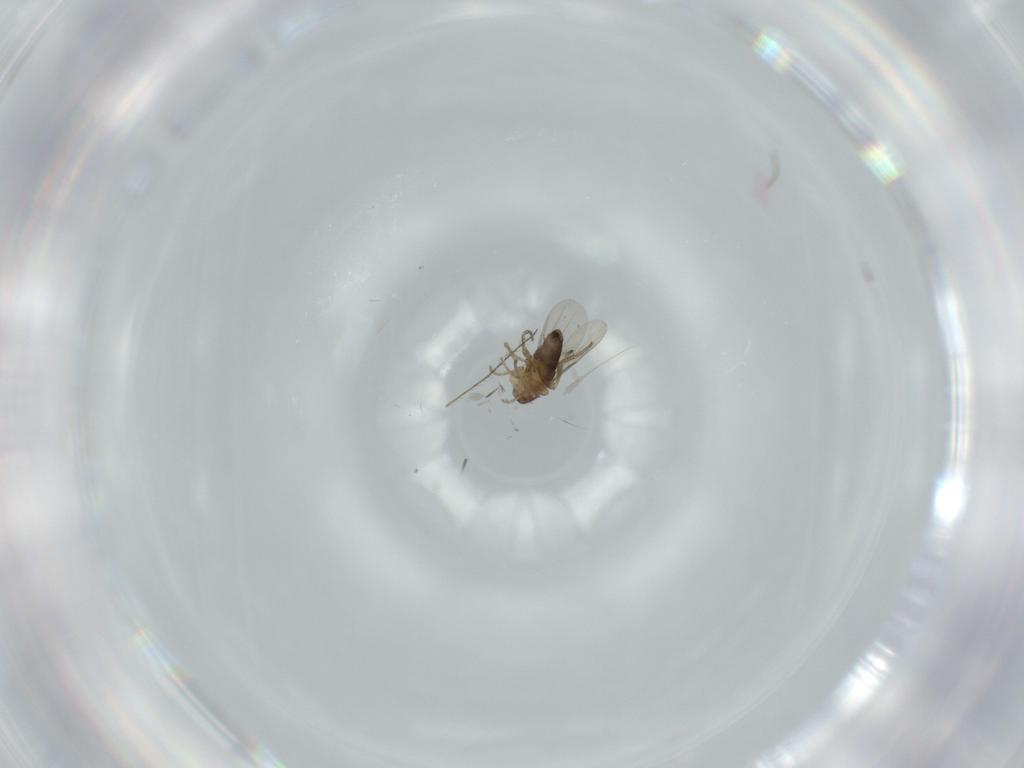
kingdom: Animalia
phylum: Arthropoda
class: Insecta
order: Diptera
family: Phoridae
